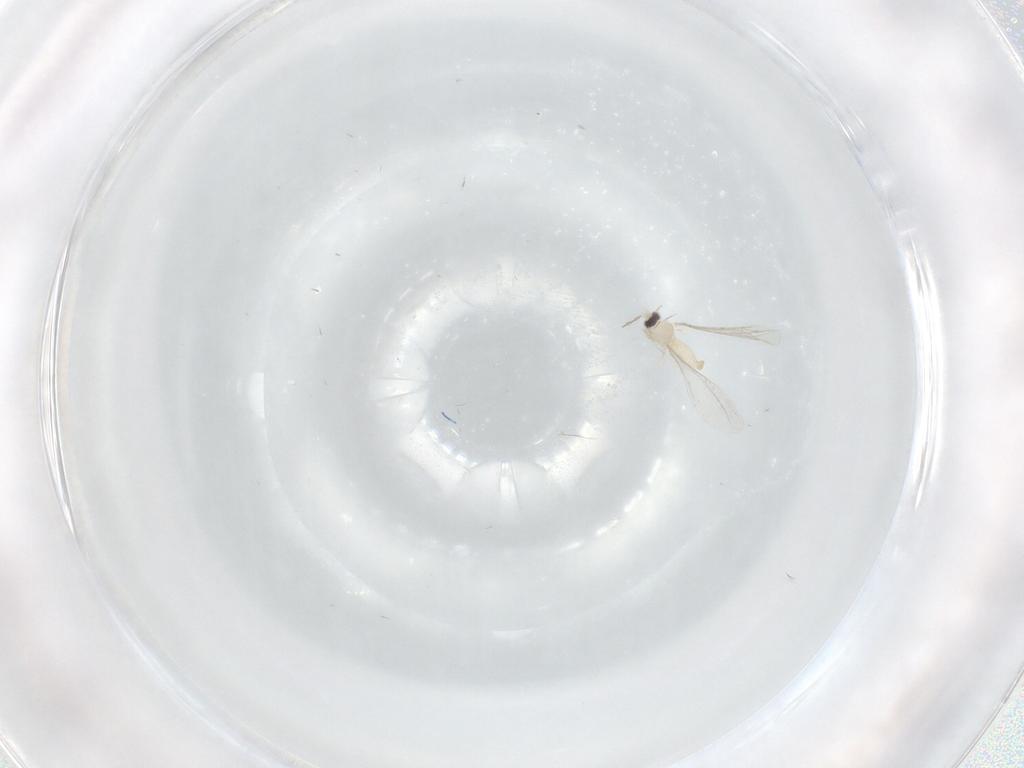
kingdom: Animalia
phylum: Arthropoda
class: Insecta
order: Diptera
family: Cecidomyiidae
